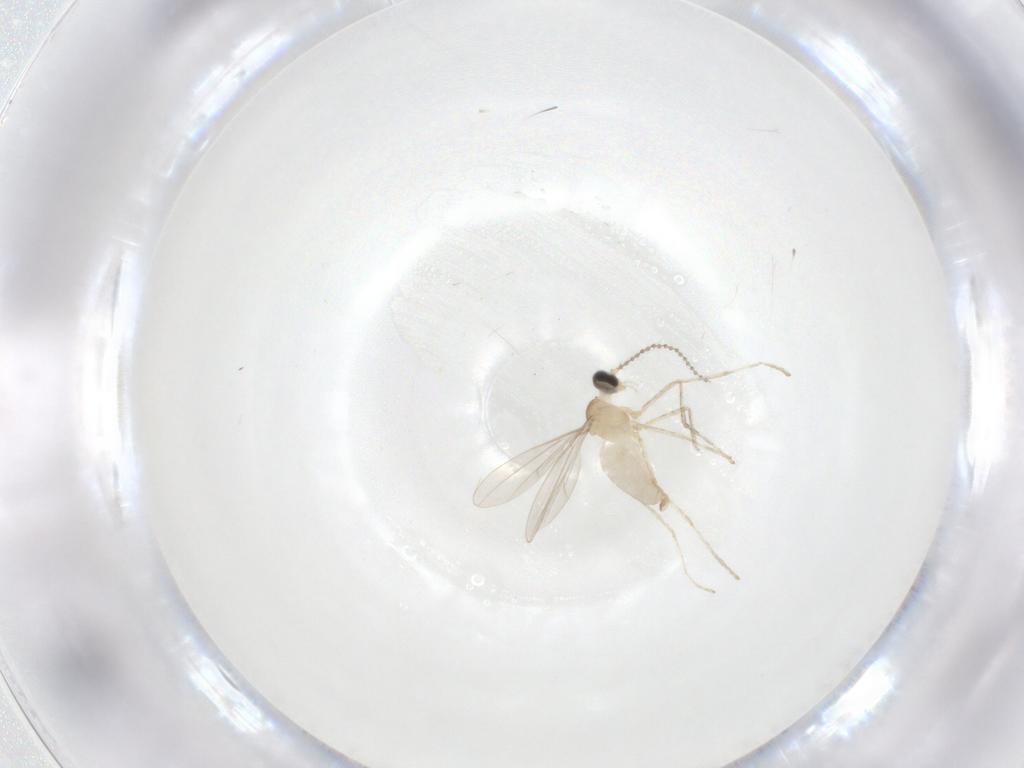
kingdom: Animalia
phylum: Arthropoda
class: Insecta
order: Diptera
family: Cecidomyiidae
